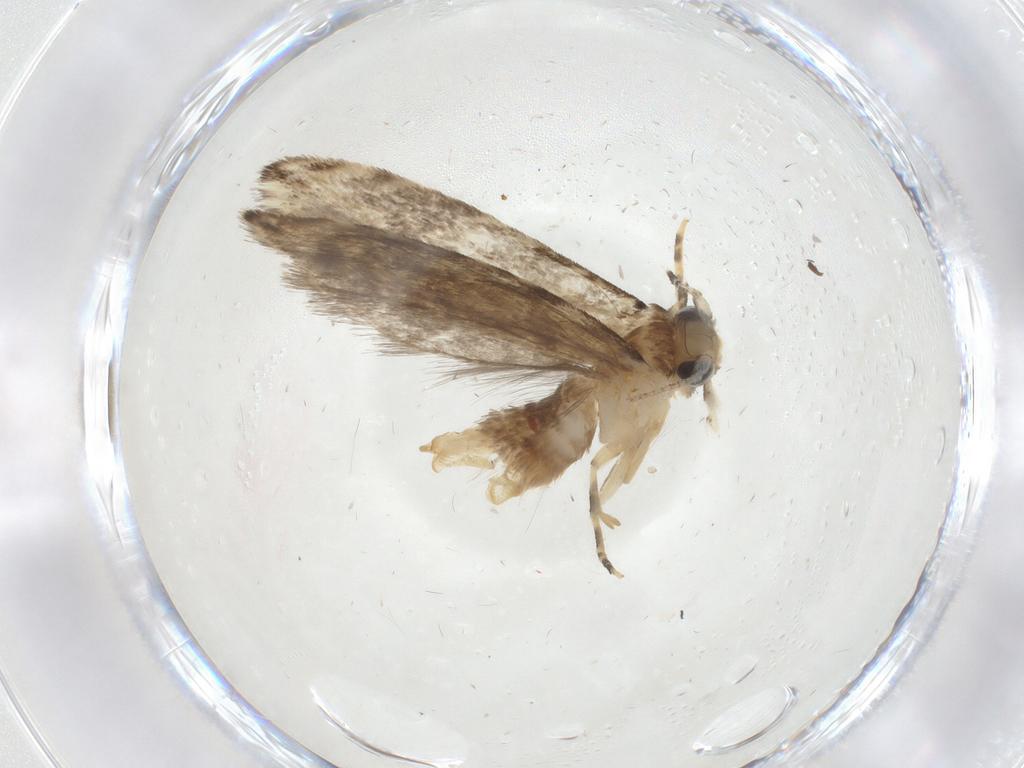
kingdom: Animalia
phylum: Arthropoda
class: Insecta
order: Lepidoptera
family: Tineidae
